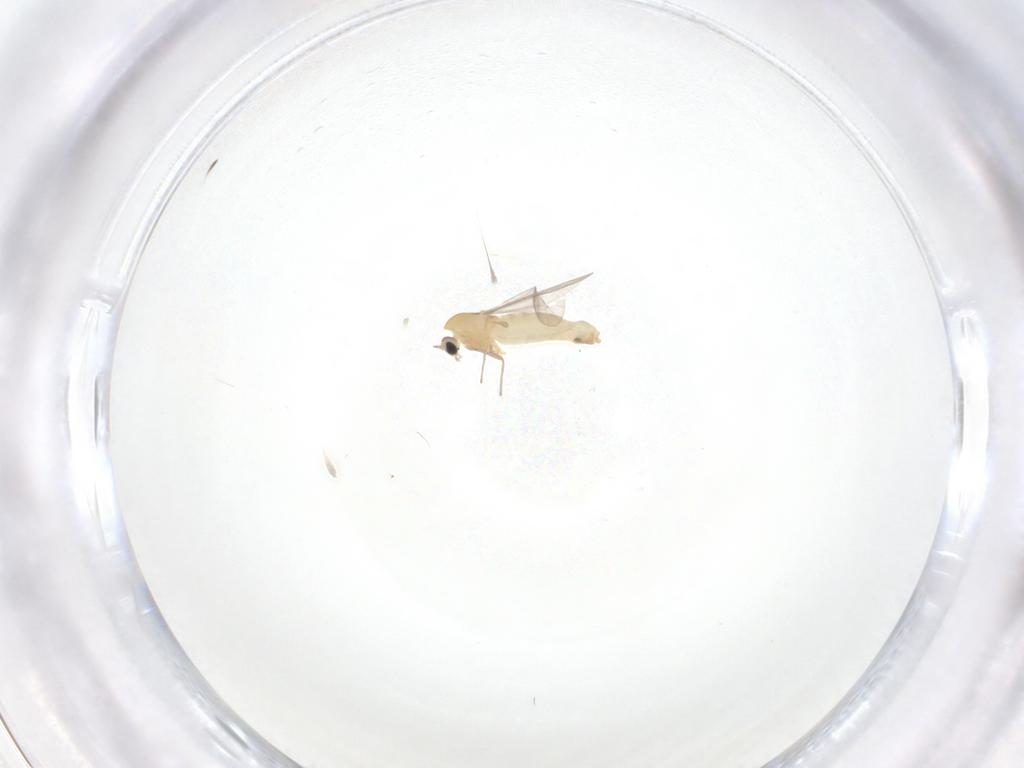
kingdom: Animalia
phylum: Arthropoda
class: Insecta
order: Diptera
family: Chironomidae
